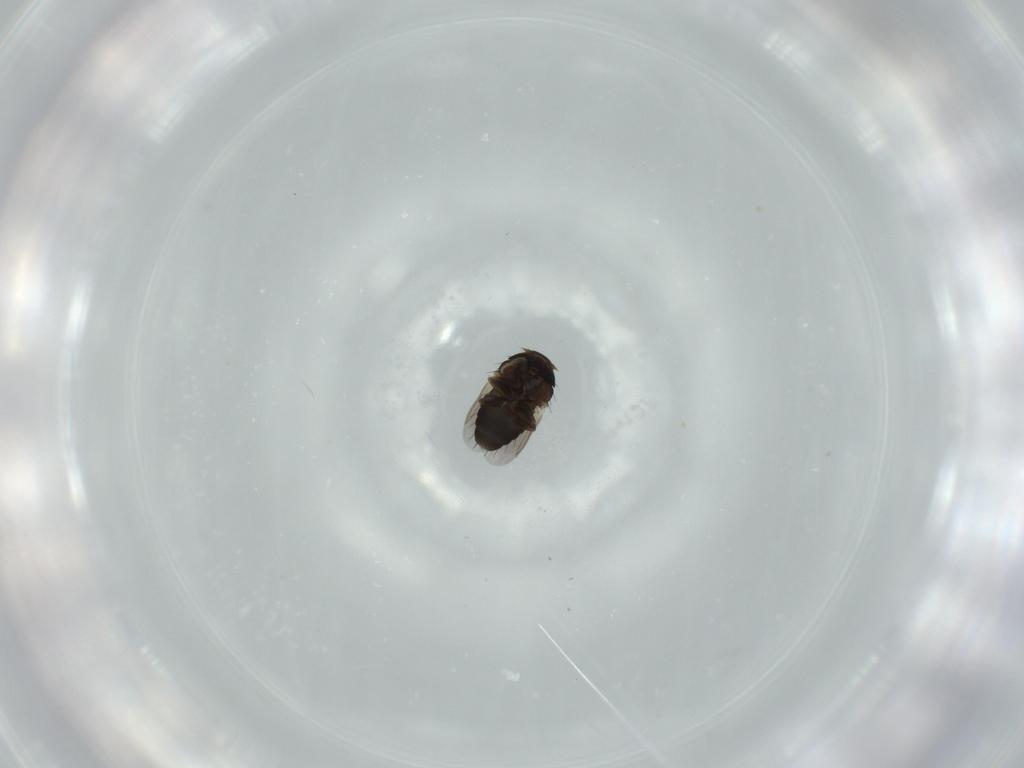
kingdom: Animalia
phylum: Arthropoda
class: Insecta
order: Diptera
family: Phoridae
